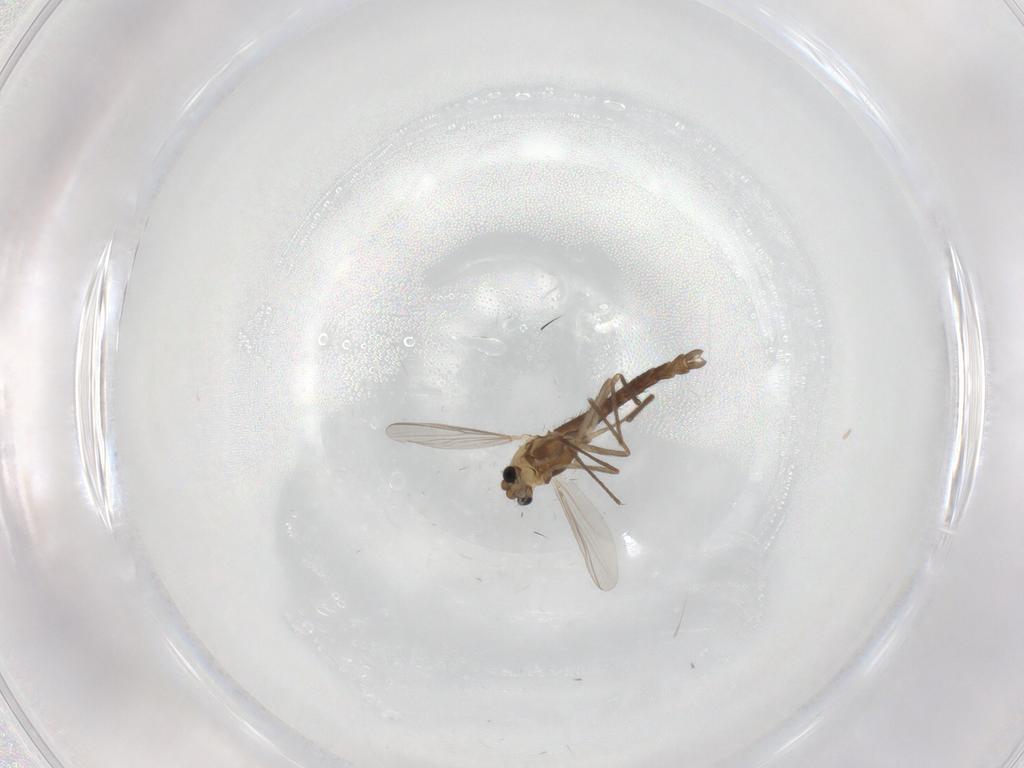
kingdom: Animalia
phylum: Arthropoda
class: Insecta
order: Diptera
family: Chironomidae
